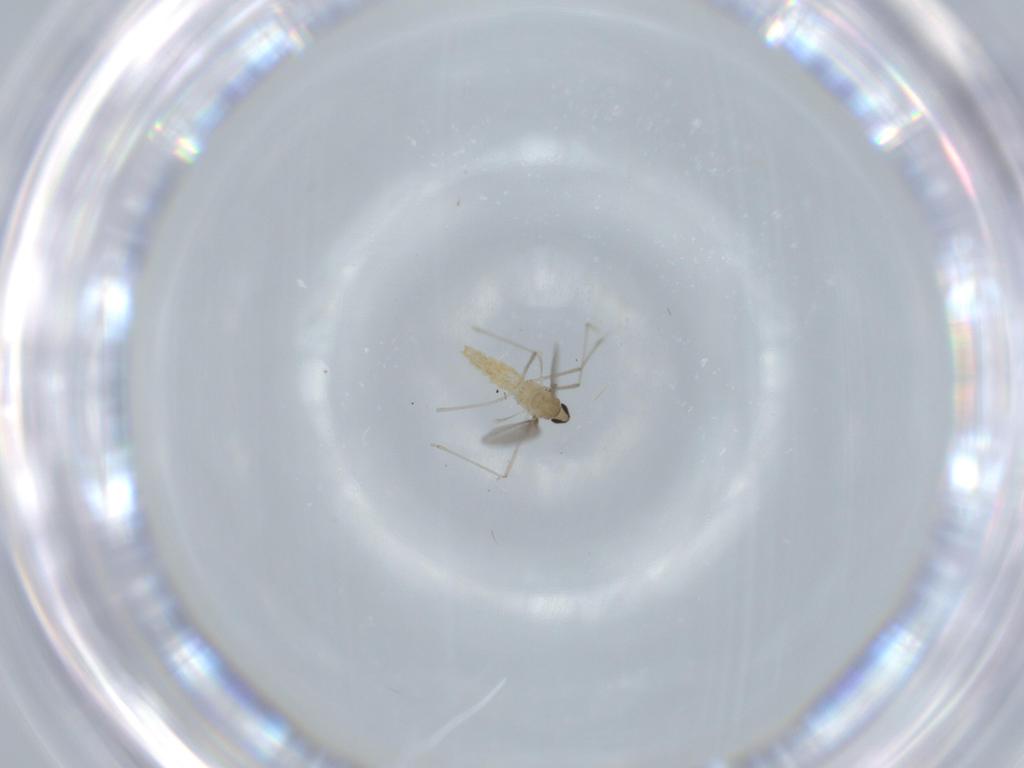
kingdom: Animalia
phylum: Arthropoda
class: Insecta
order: Diptera
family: Cecidomyiidae
